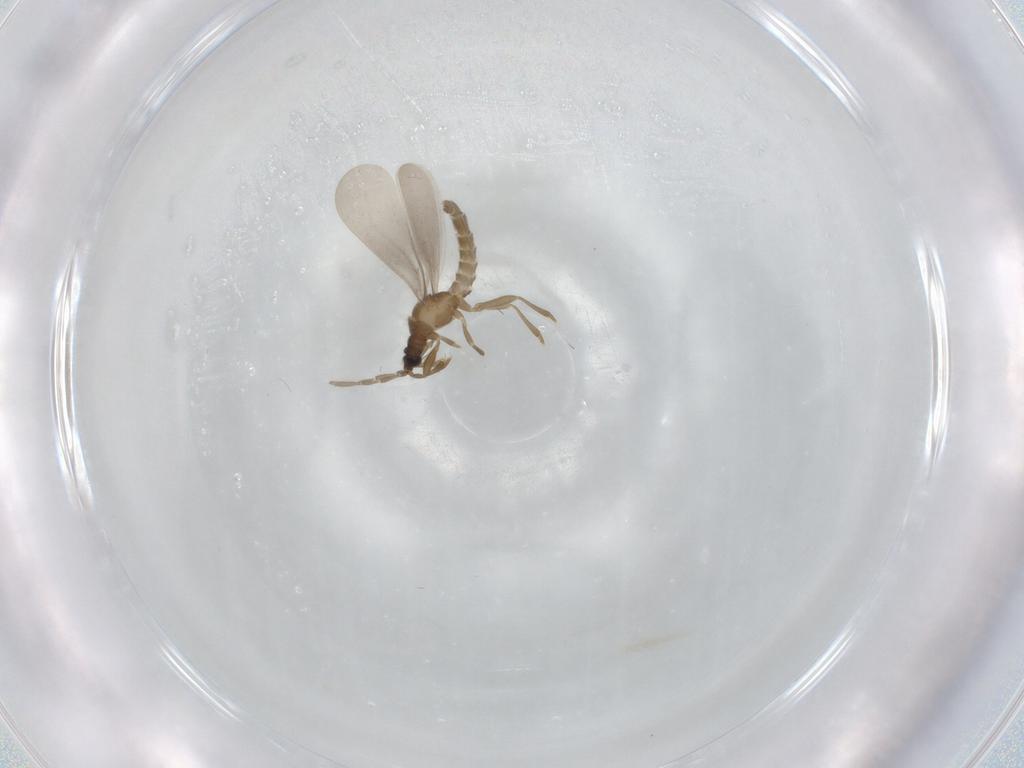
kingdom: Animalia
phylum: Arthropoda
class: Insecta
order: Hemiptera
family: Enicocephalidae
